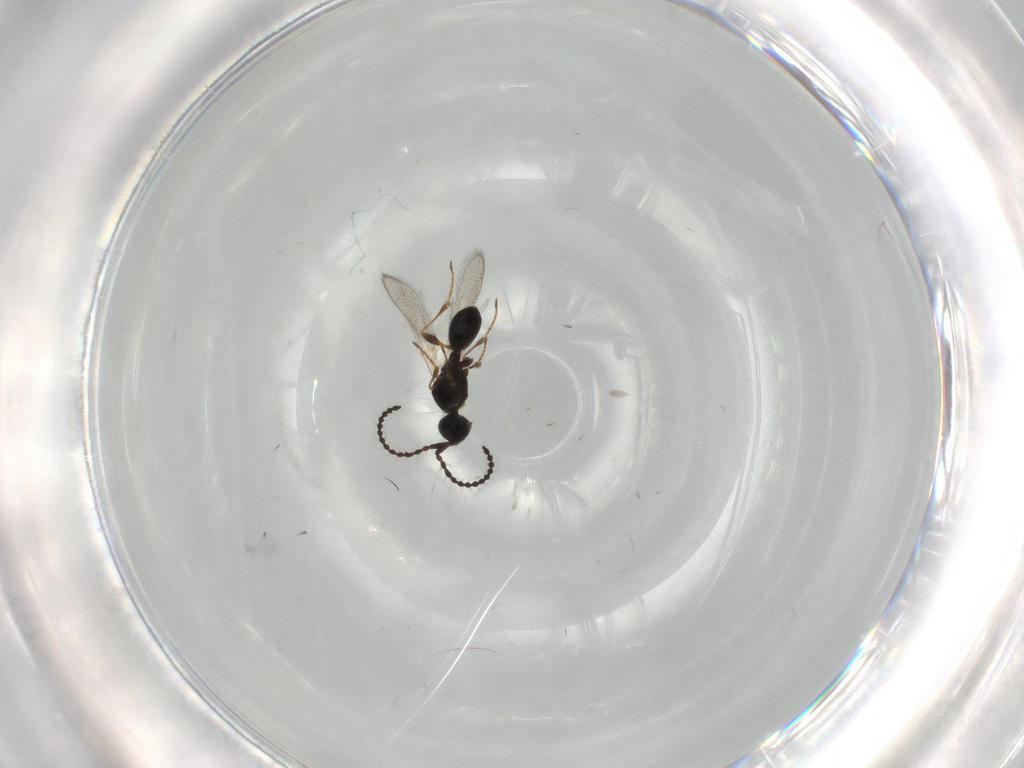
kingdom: Animalia
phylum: Arthropoda
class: Insecta
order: Hymenoptera
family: Diapriidae
